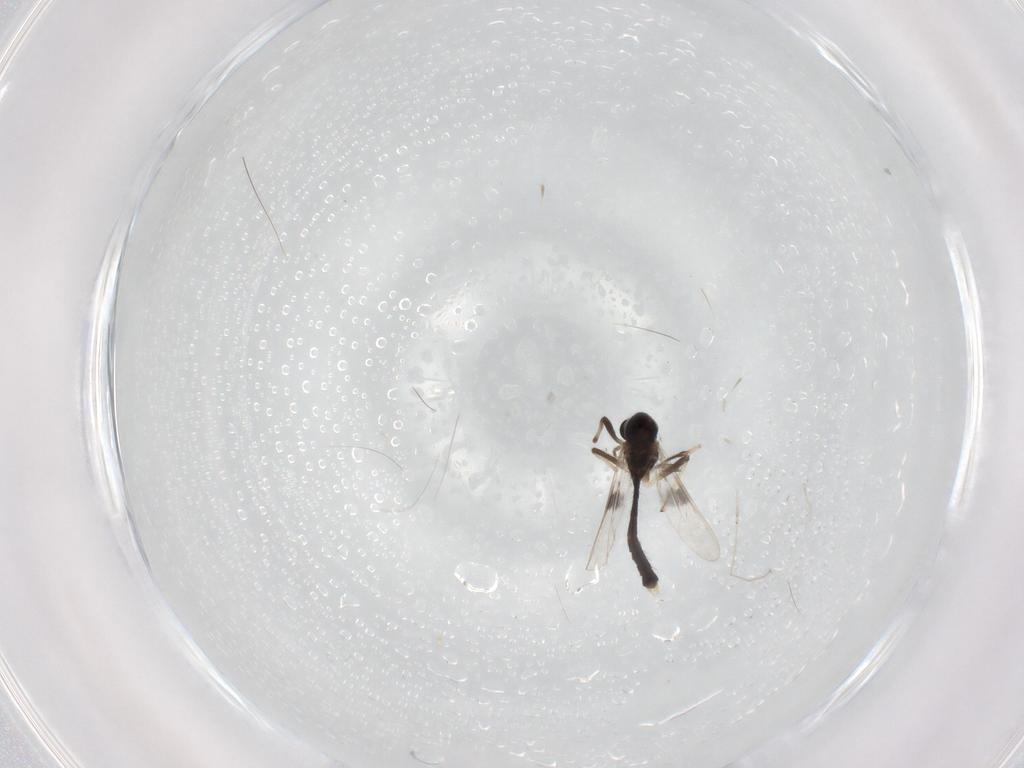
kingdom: Animalia
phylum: Arthropoda
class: Insecta
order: Diptera
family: Chironomidae
